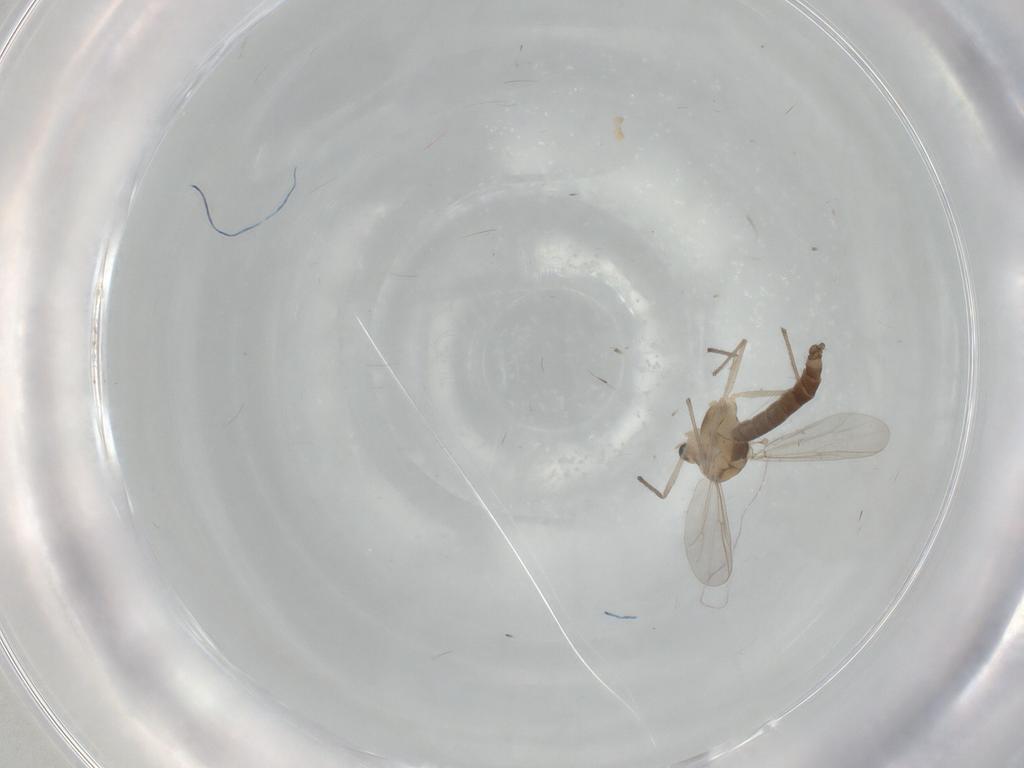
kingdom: Animalia
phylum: Arthropoda
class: Insecta
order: Diptera
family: Chironomidae
